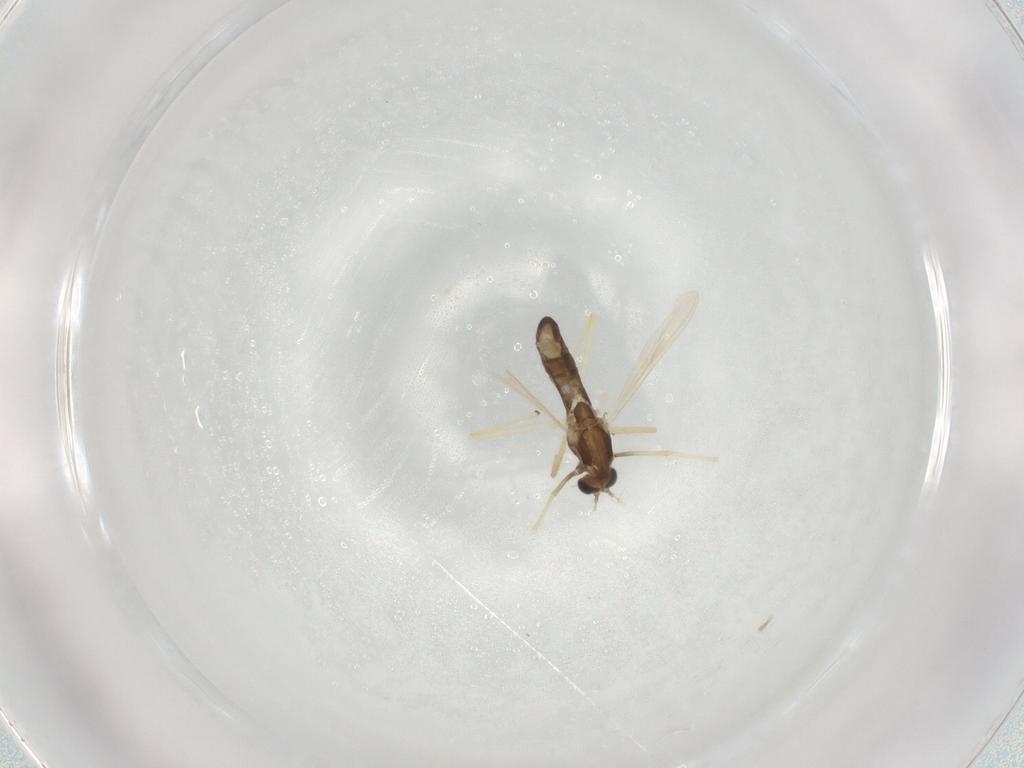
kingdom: Animalia
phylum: Arthropoda
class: Insecta
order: Diptera
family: Chironomidae
